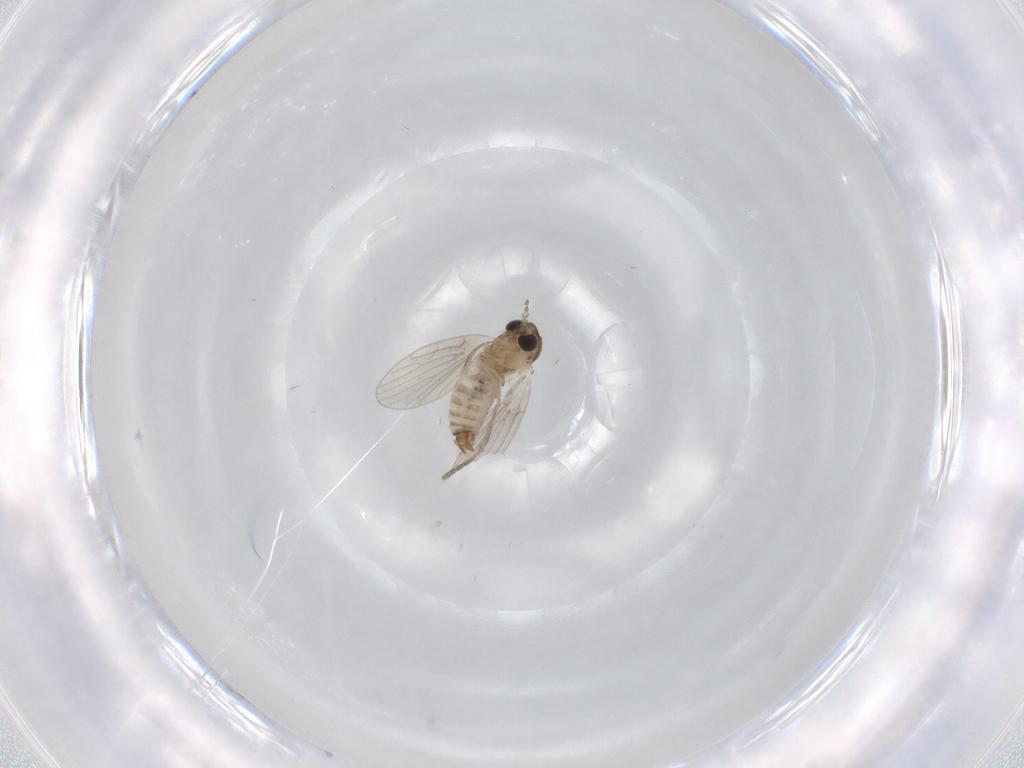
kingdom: Animalia
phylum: Arthropoda
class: Insecta
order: Diptera
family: Psychodidae
